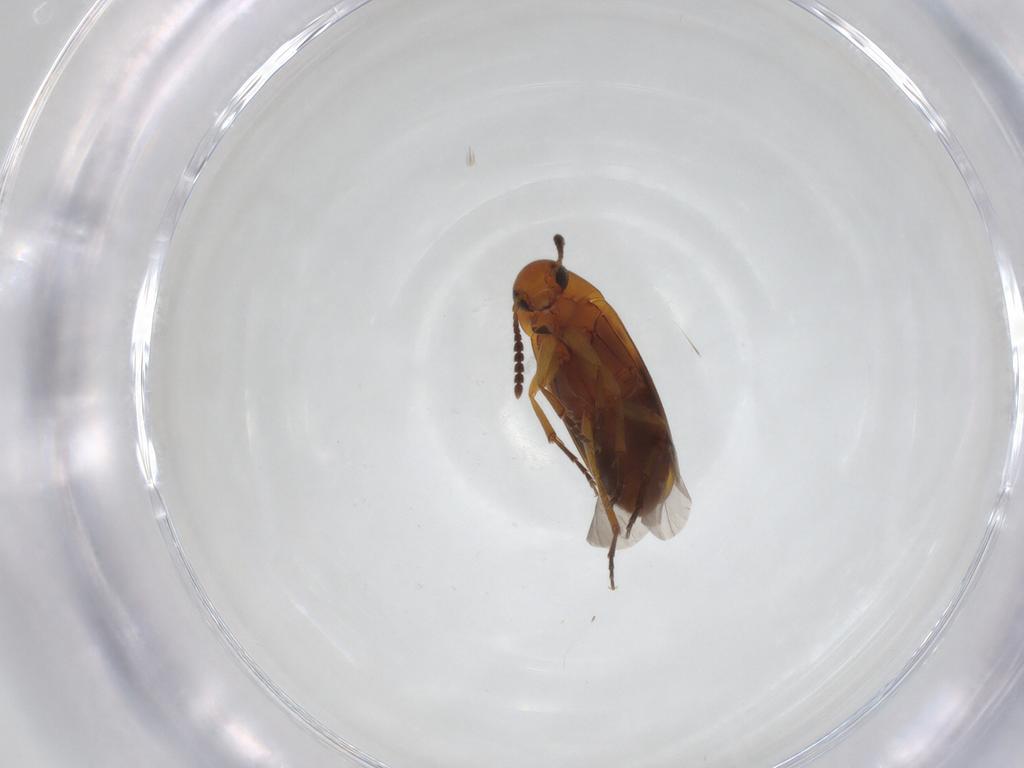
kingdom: Animalia
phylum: Arthropoda
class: Insecta
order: Coleoptera
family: Scraptiidae
